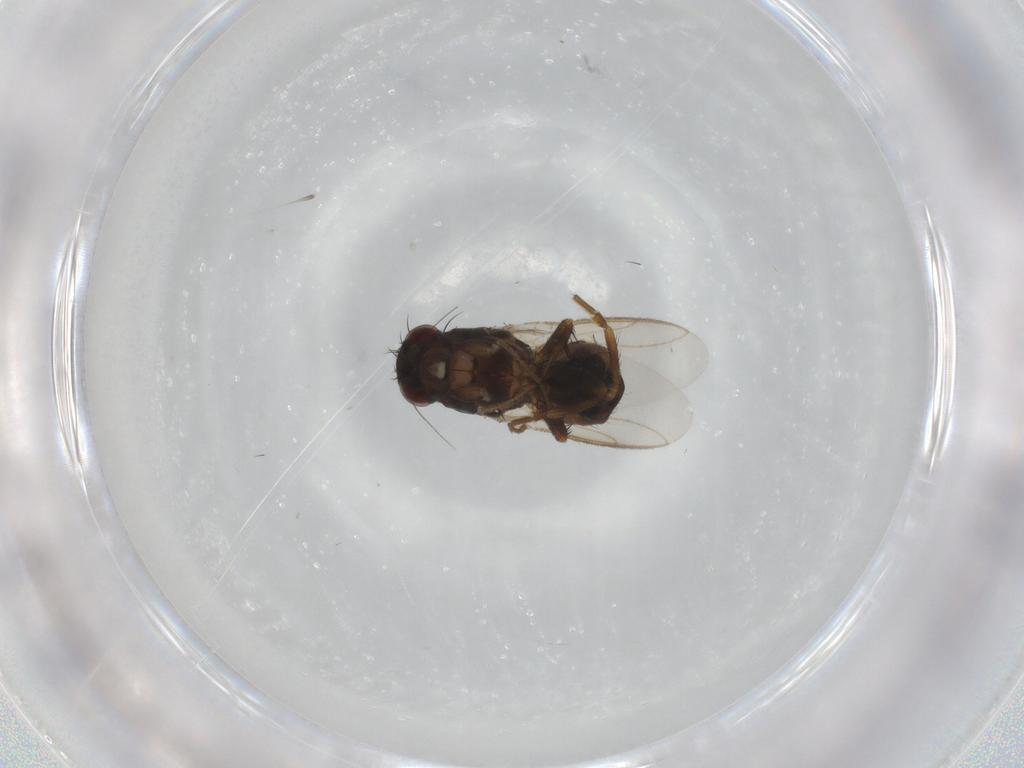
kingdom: Animalia
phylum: Arthropoda
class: Insecta
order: Diptera
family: Sphaeroceridae
